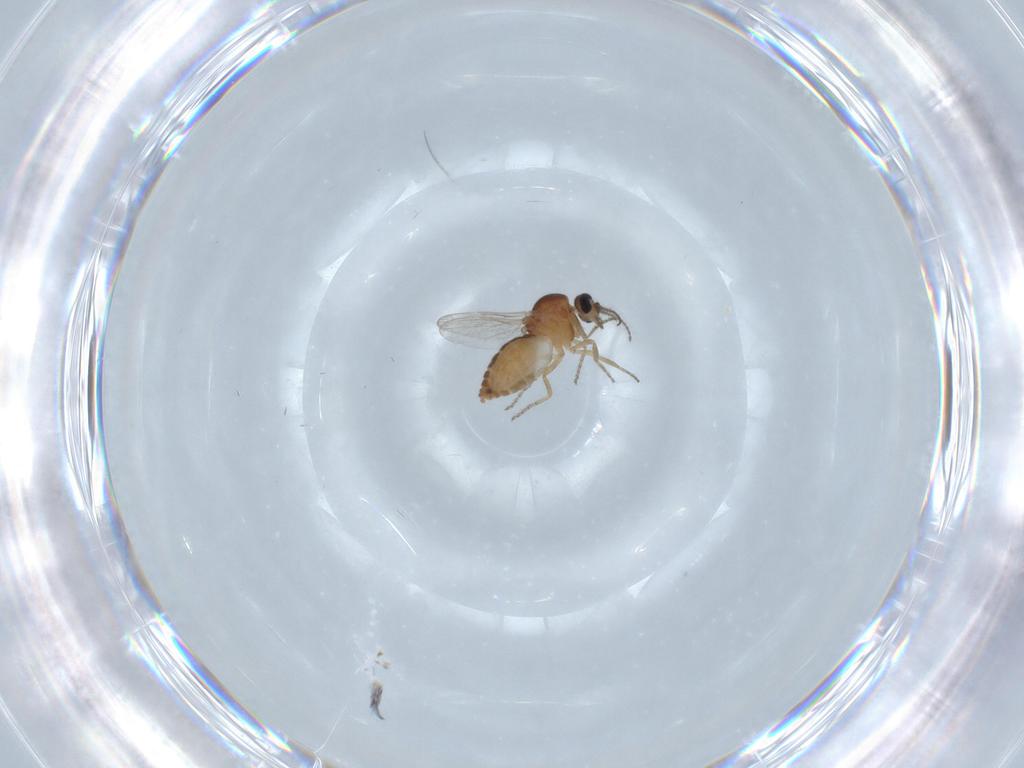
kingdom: Animalia
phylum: Arthropoda
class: Insecta
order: Diptera
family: Ceratopogonidae
